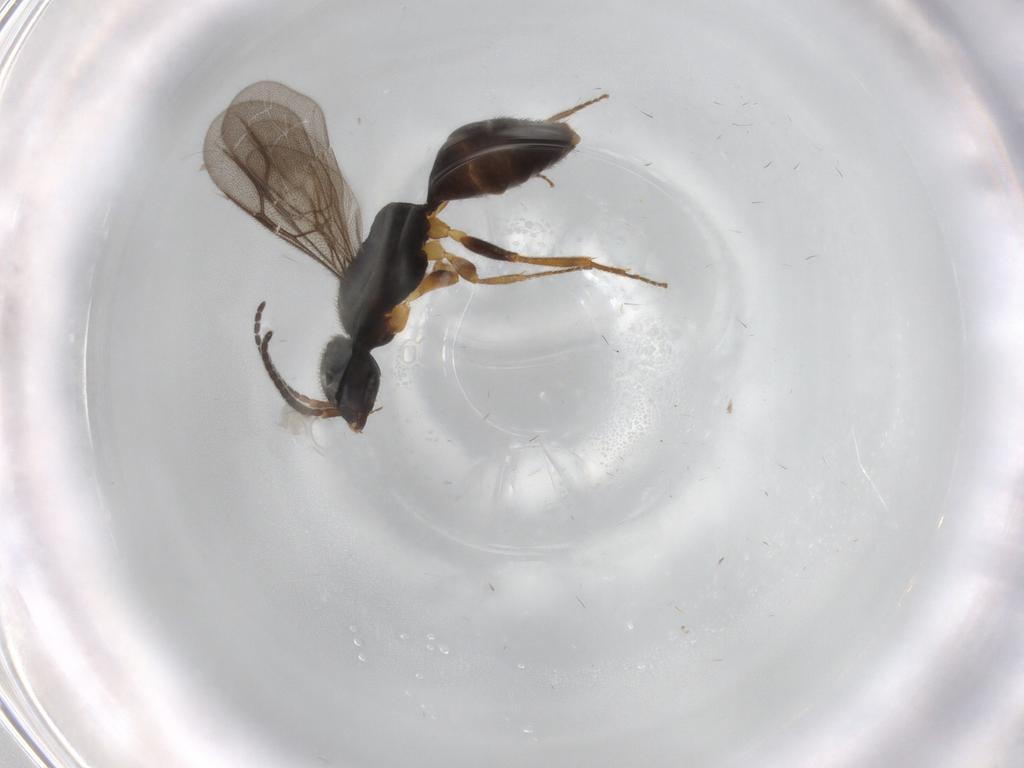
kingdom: Animalia
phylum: Arthropoda
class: Insecta
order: Hymenoptera
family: Bethylidae
